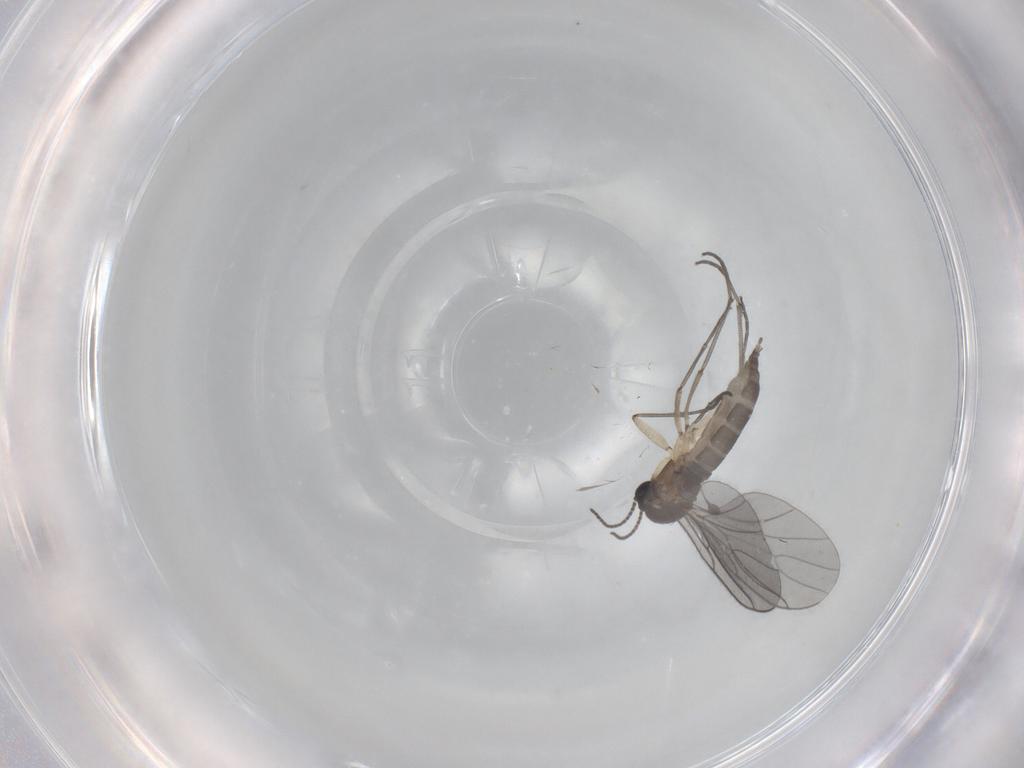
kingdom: Animalia
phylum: Arthropoda
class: Insecta
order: Diptera
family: Sciaridae
